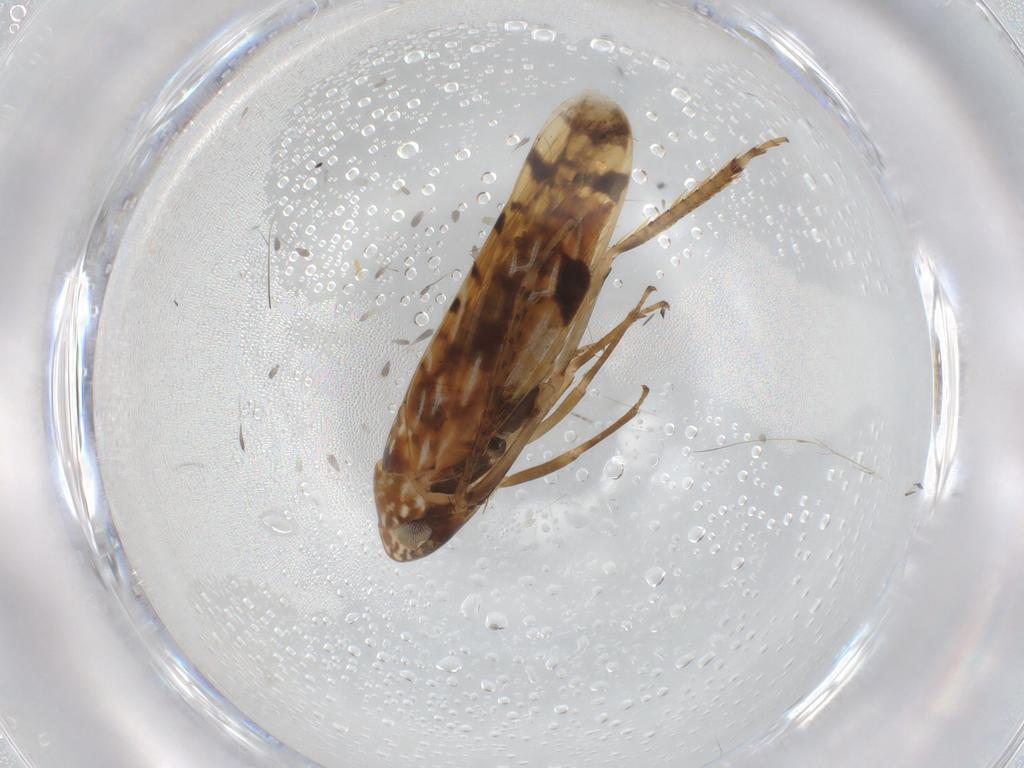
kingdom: Animalia
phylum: Arthropoda
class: Insecta
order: Hemiptera
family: Cicadellidae
